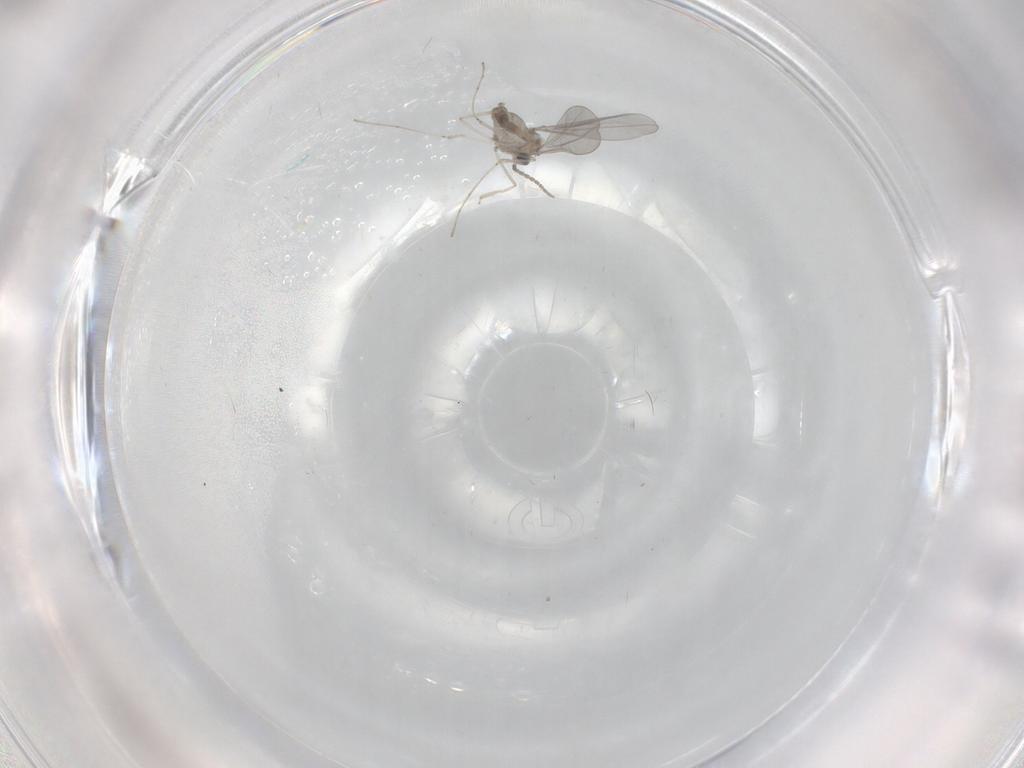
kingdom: Animalia
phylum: Arthropoda
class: Insecta
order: Diptera
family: Cecidomyiidae
